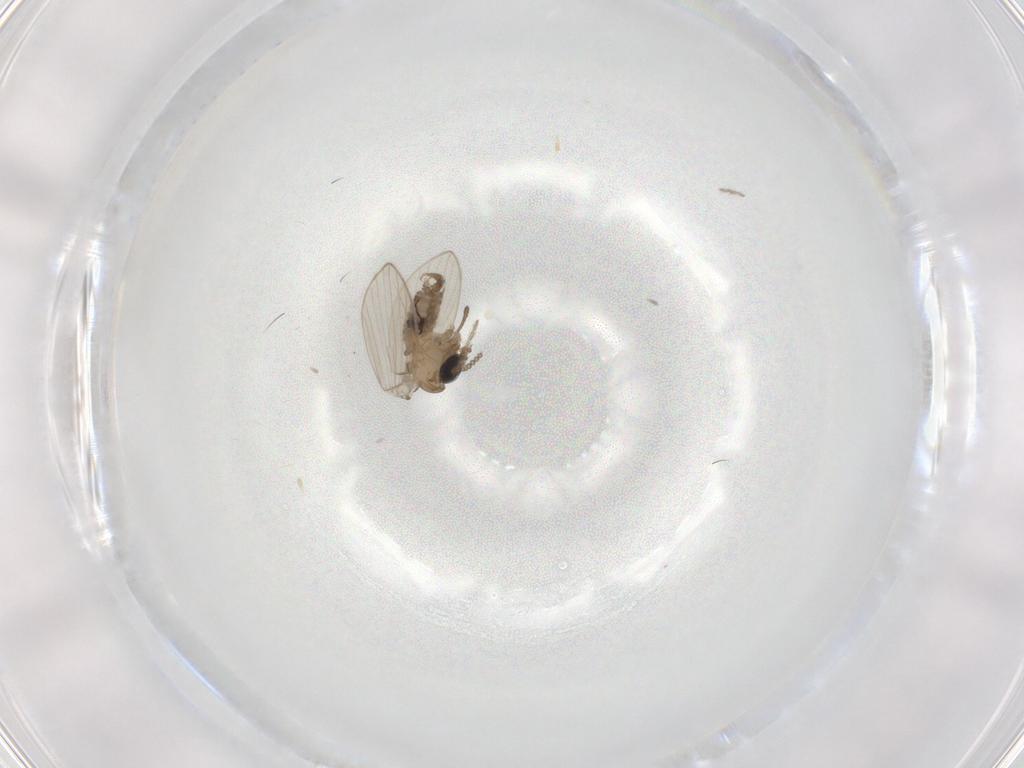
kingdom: Animalia
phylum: Arthropoda
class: Insecta
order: Diptera
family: Psychodidae
